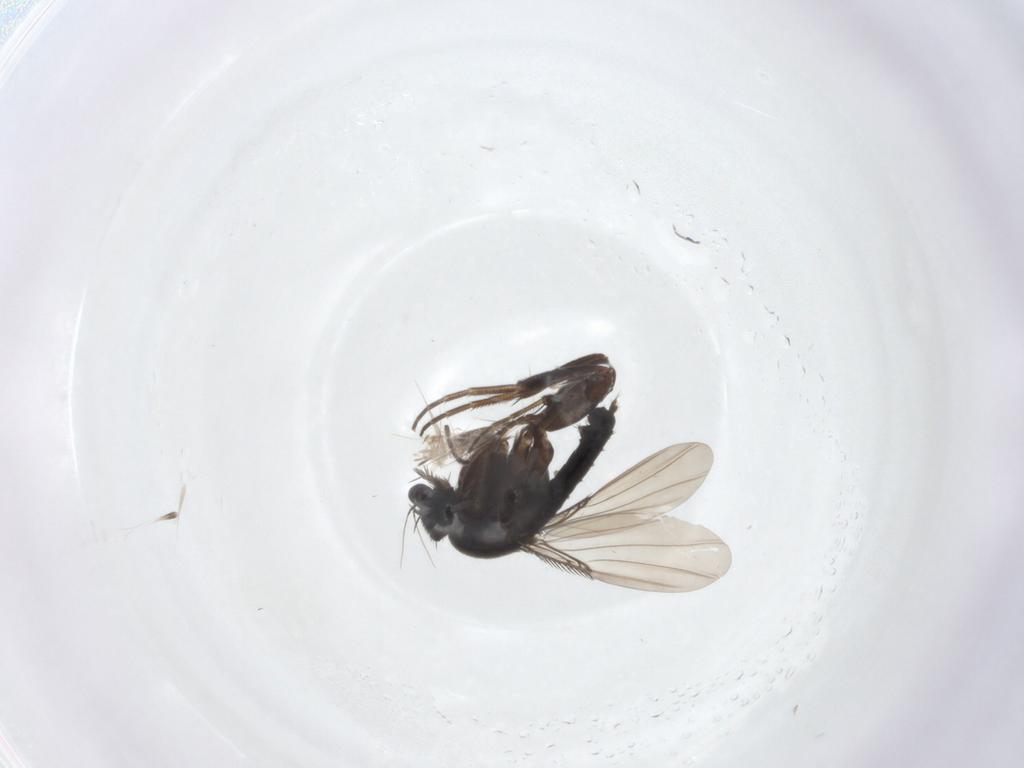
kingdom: Animalia
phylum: Arthropoda
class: Insecta
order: Diptera
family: Sciaridae
